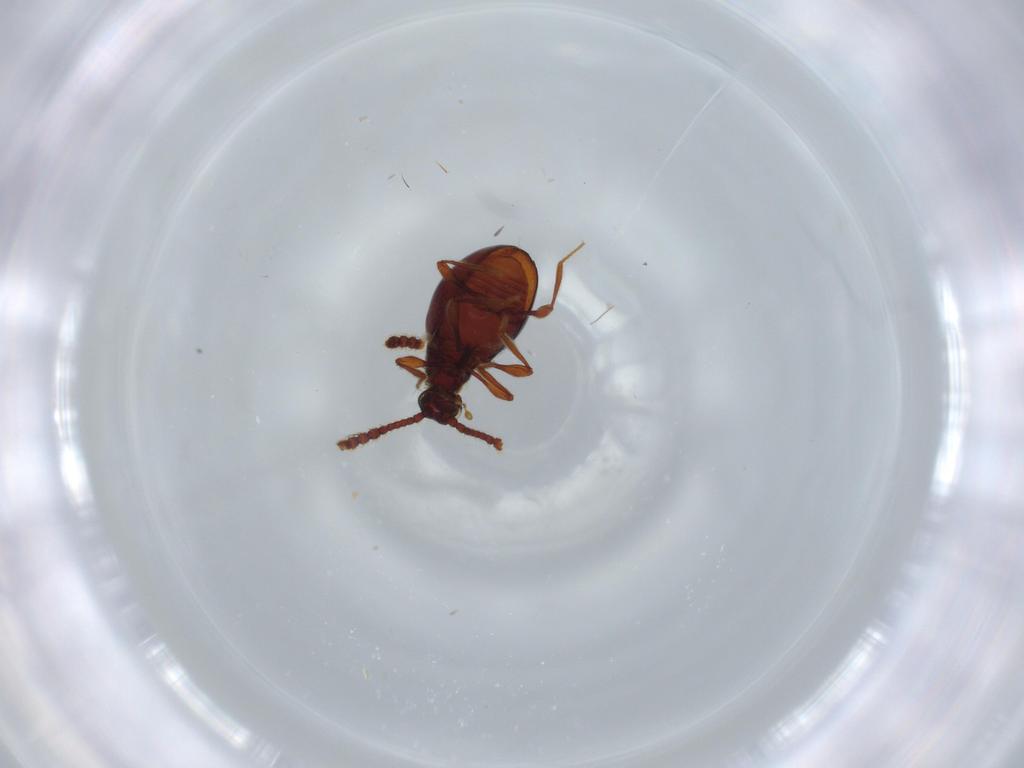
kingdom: Animalia
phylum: Arthropoda
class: Insecta
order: Coleoptera
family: Staphylinidae
